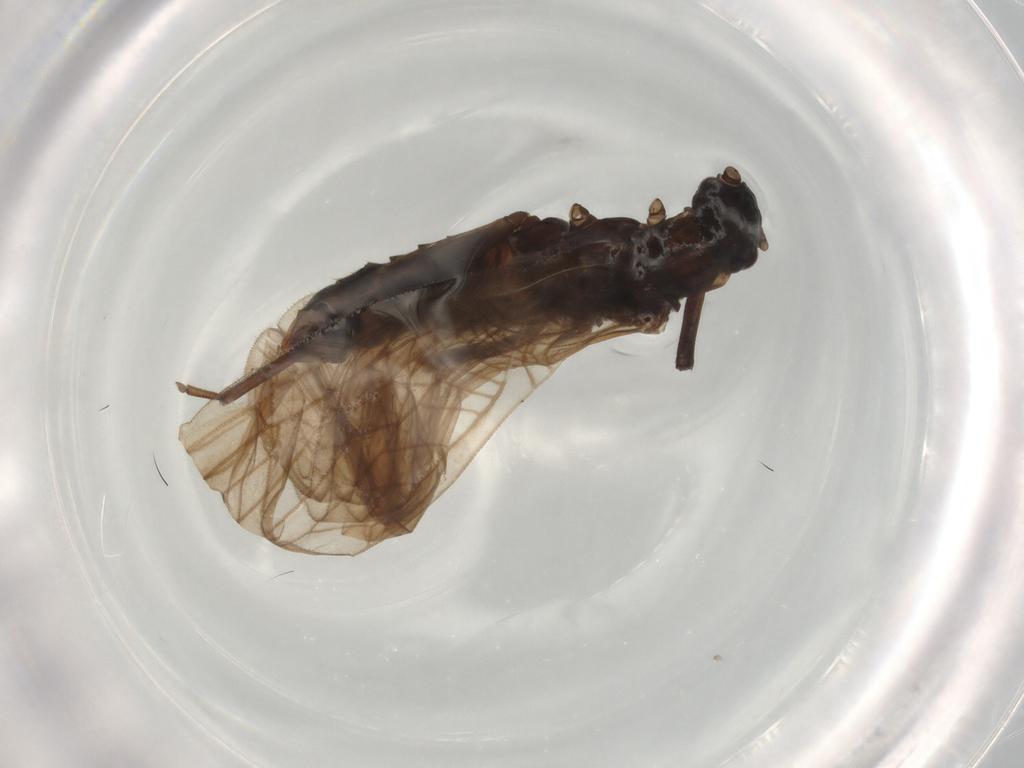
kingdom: Animalia
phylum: Arthropoda
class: Insecta
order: Plecoptera
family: Leuctridae
